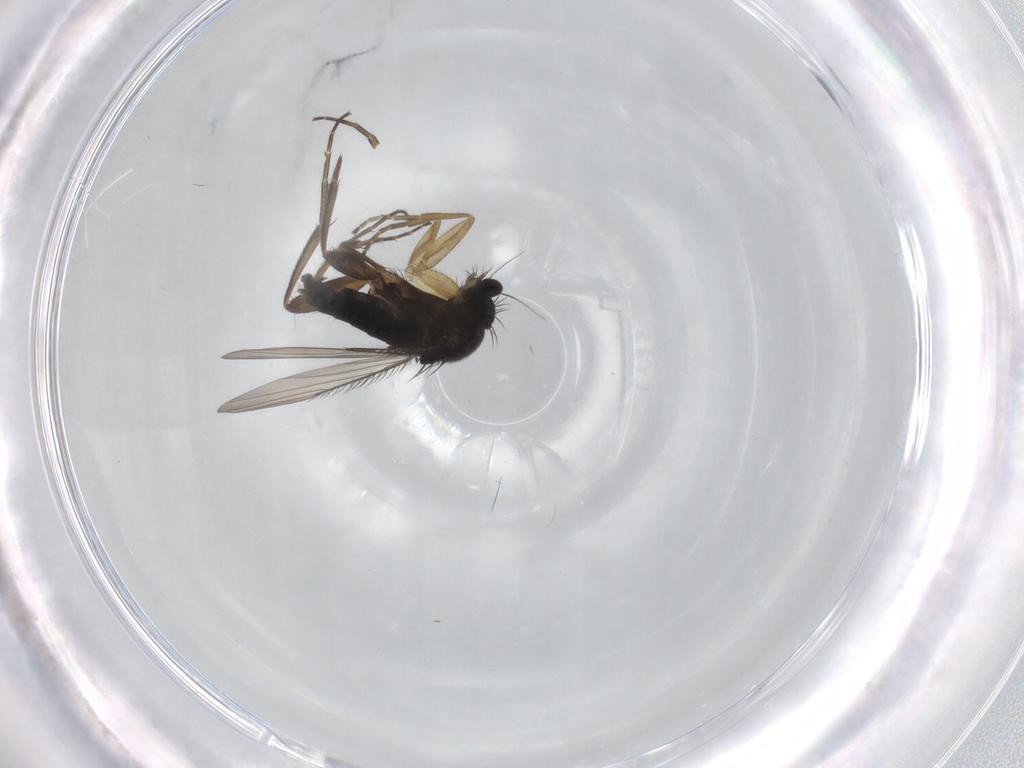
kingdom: Animalia
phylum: Arthropoda
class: Insecta
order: Diptera
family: Phoridae
